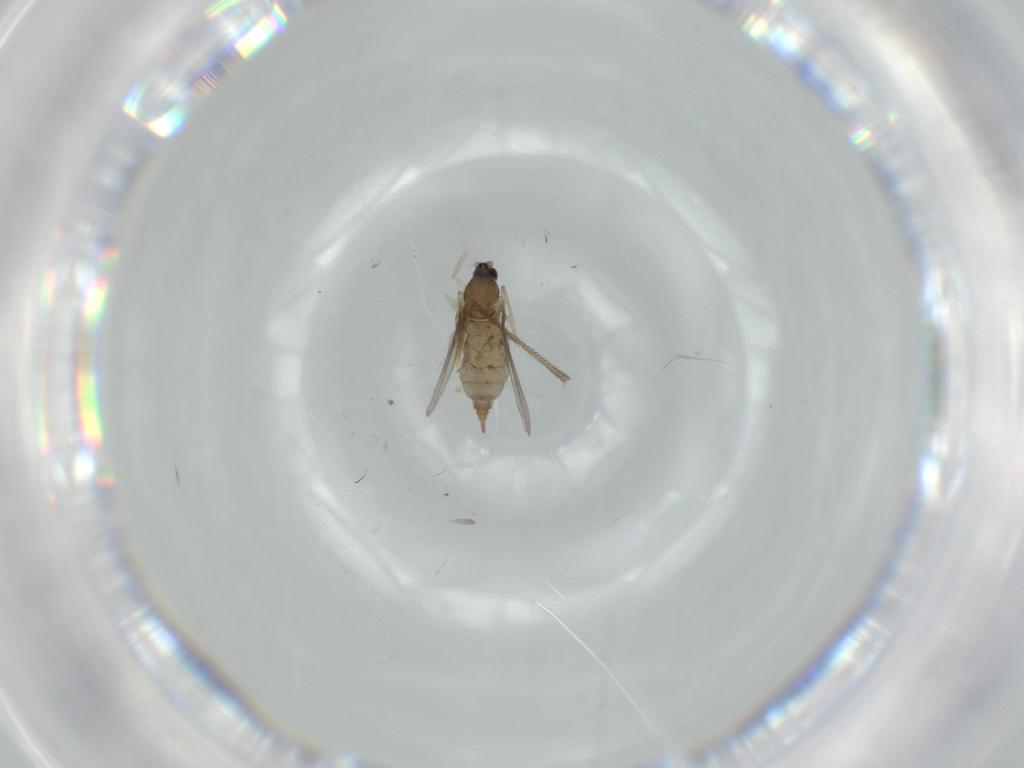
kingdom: Animalia
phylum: Arthropoda
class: Insecta
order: Diptera
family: Cecidomyiidae
